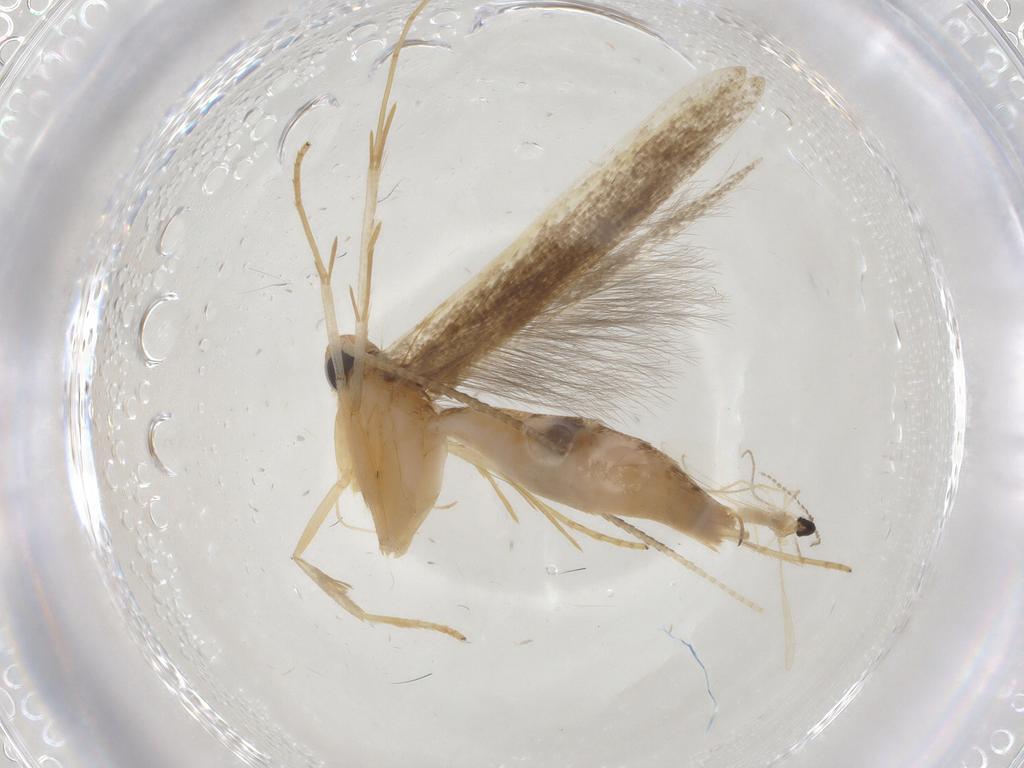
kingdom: Animalia
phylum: Arthropoda
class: Insecta
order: Lepidoptera
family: Pterolonchidae
